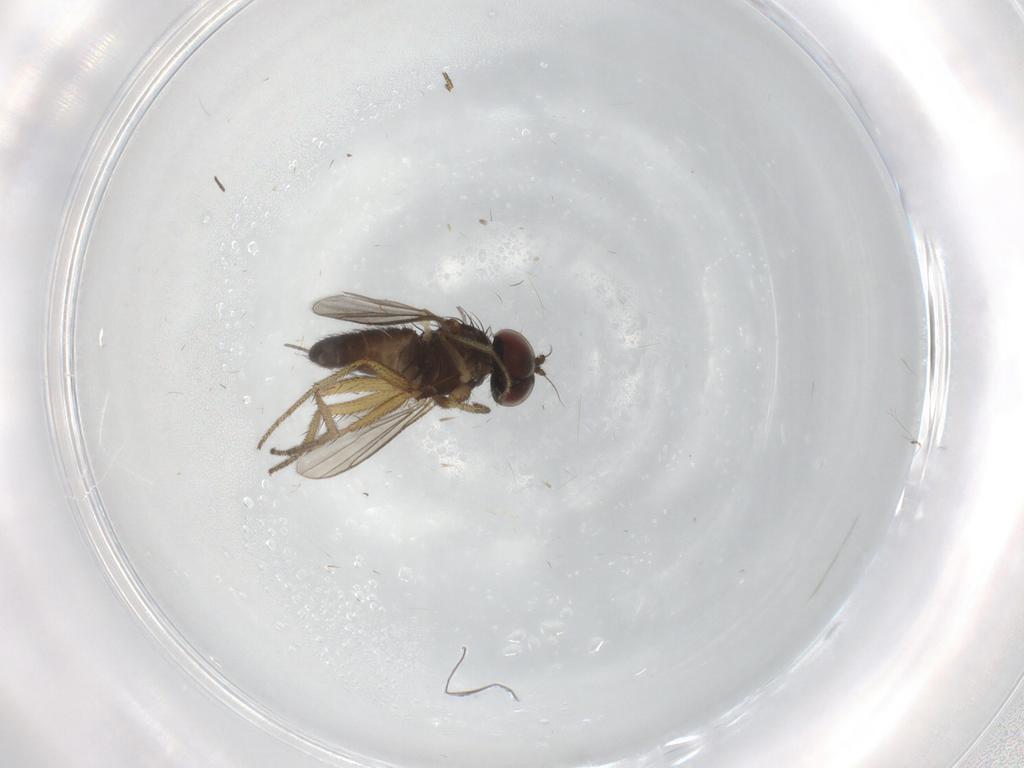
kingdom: Animalia
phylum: Arthropoda
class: Insecta
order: Diptera
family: Dolichopodidae
